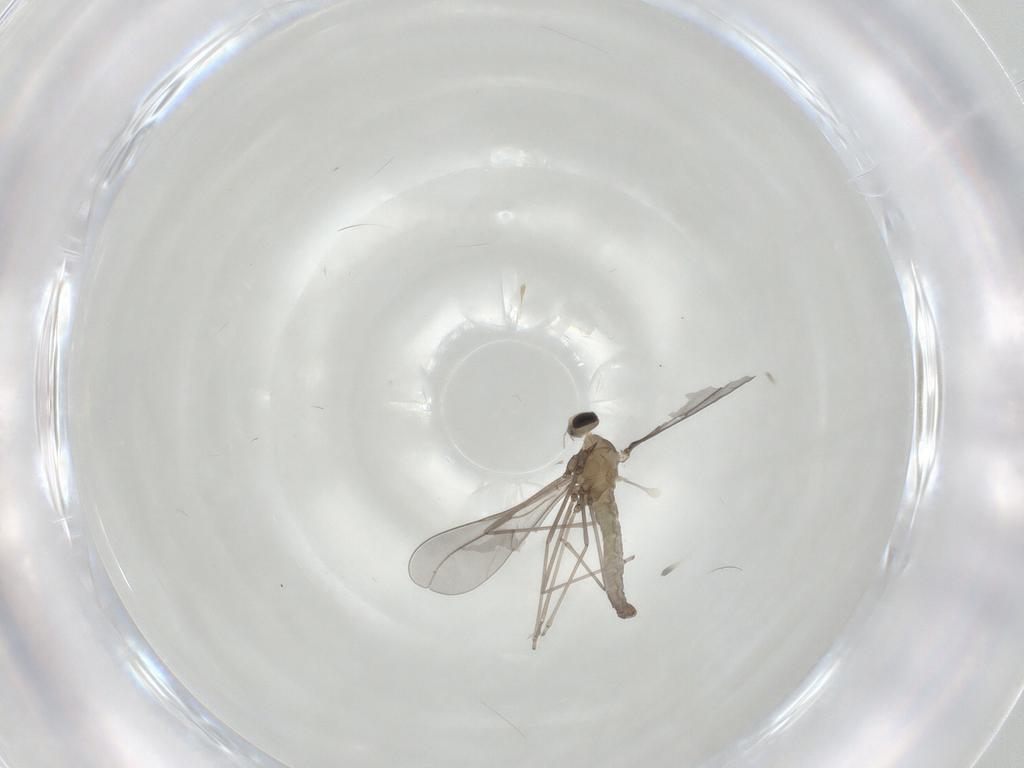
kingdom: Animalia
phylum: Arthropoda
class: Insecta
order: Diptera
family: Cecidomyiidae
